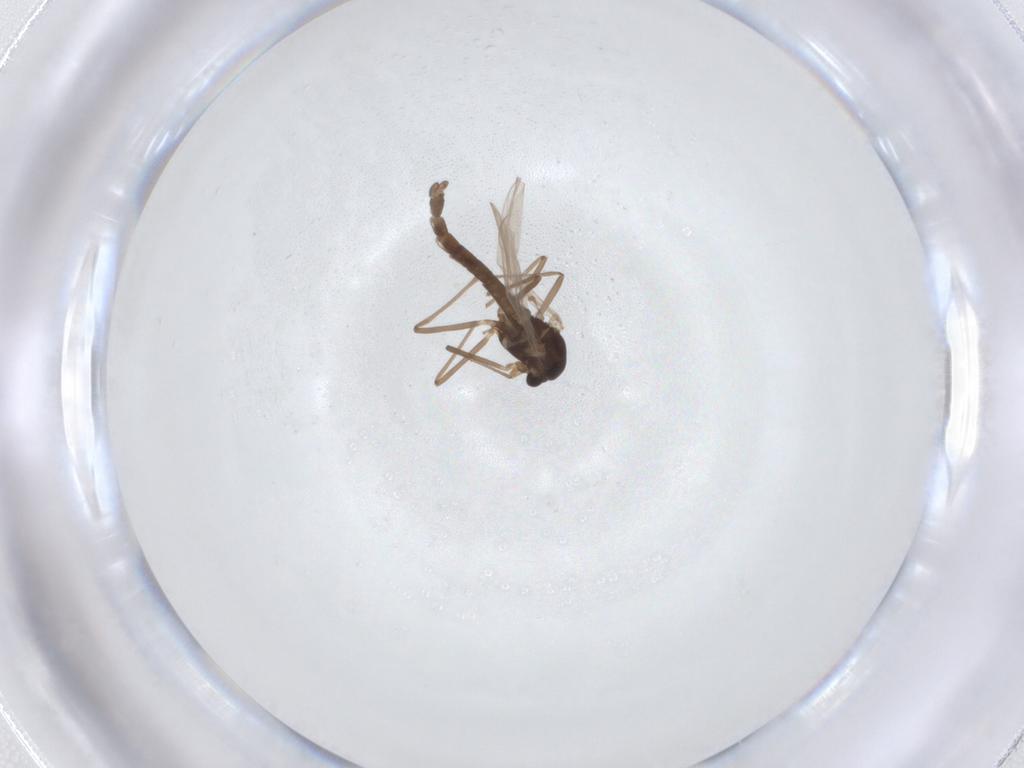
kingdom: Animalia
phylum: Arthropoda
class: Insecta
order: Diptera
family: Chironomidae
